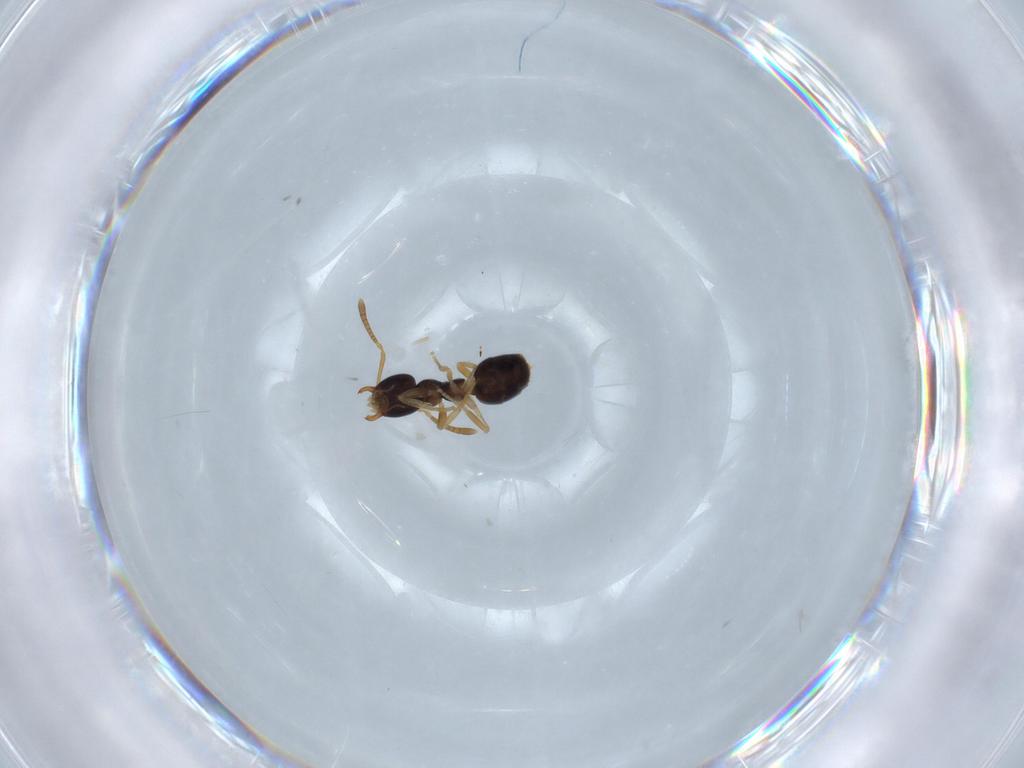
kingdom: Animalia
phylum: Arthropoda
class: Insecta
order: Hymenoptera
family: Formicidae
